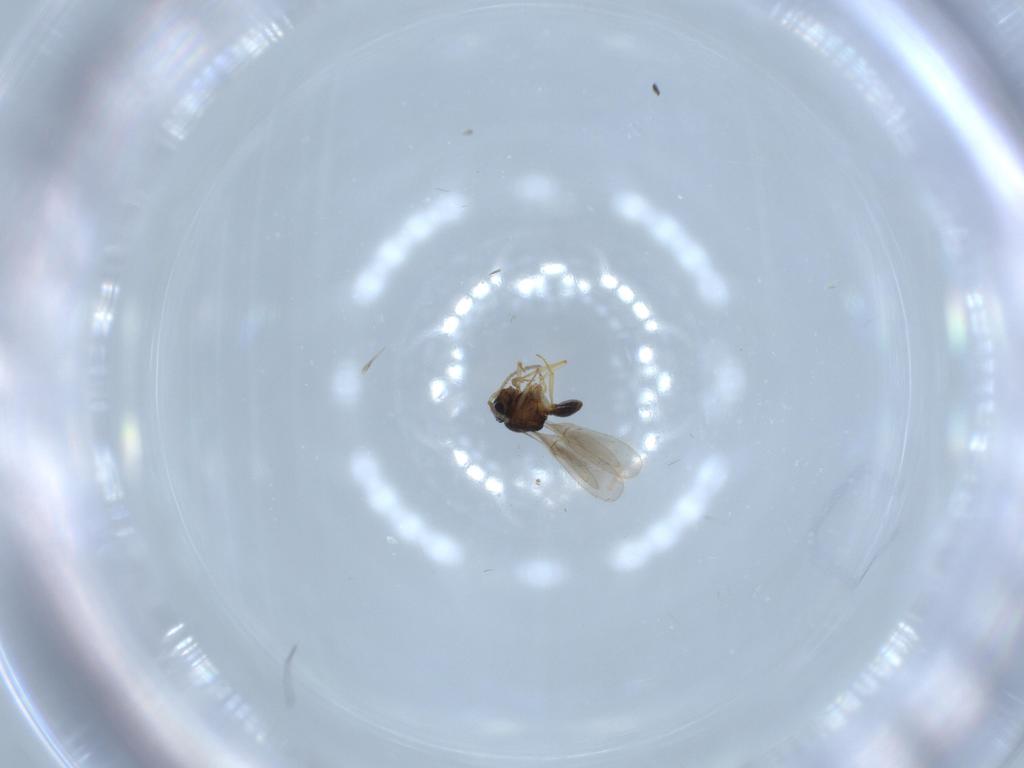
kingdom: Animalia
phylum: Arthropoda
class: Insecta
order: Hymenoptera
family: Scelionidae
